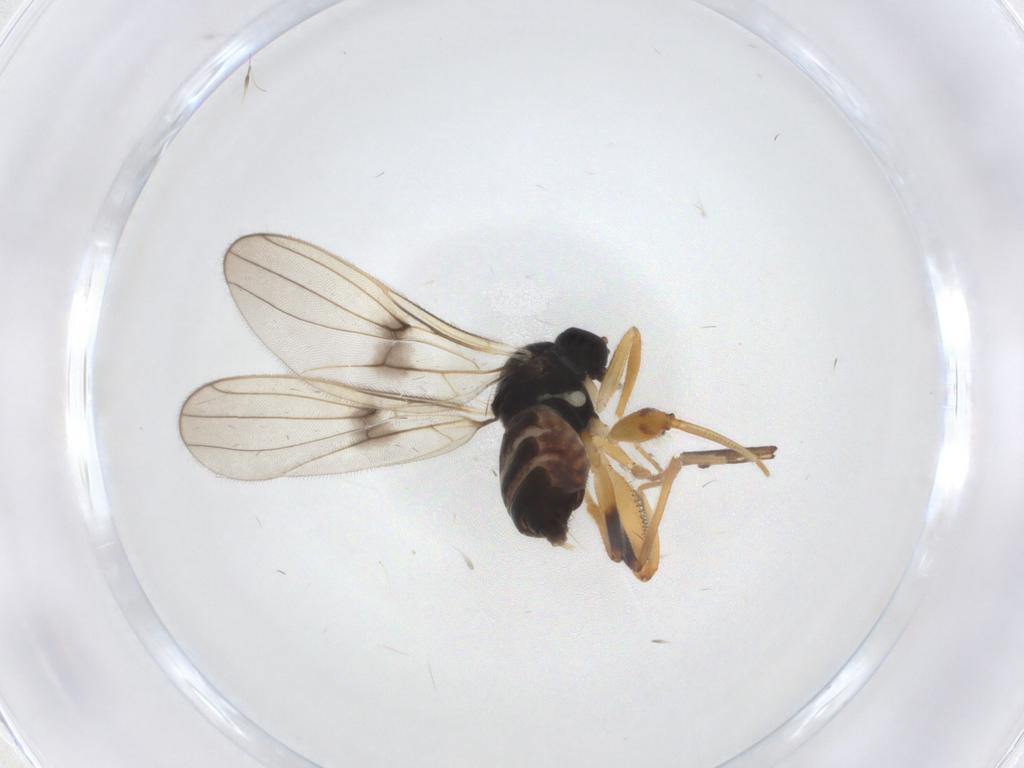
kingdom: Animalia
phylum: Arthropoda
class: Insecta
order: Diptera
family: Hybotidae
